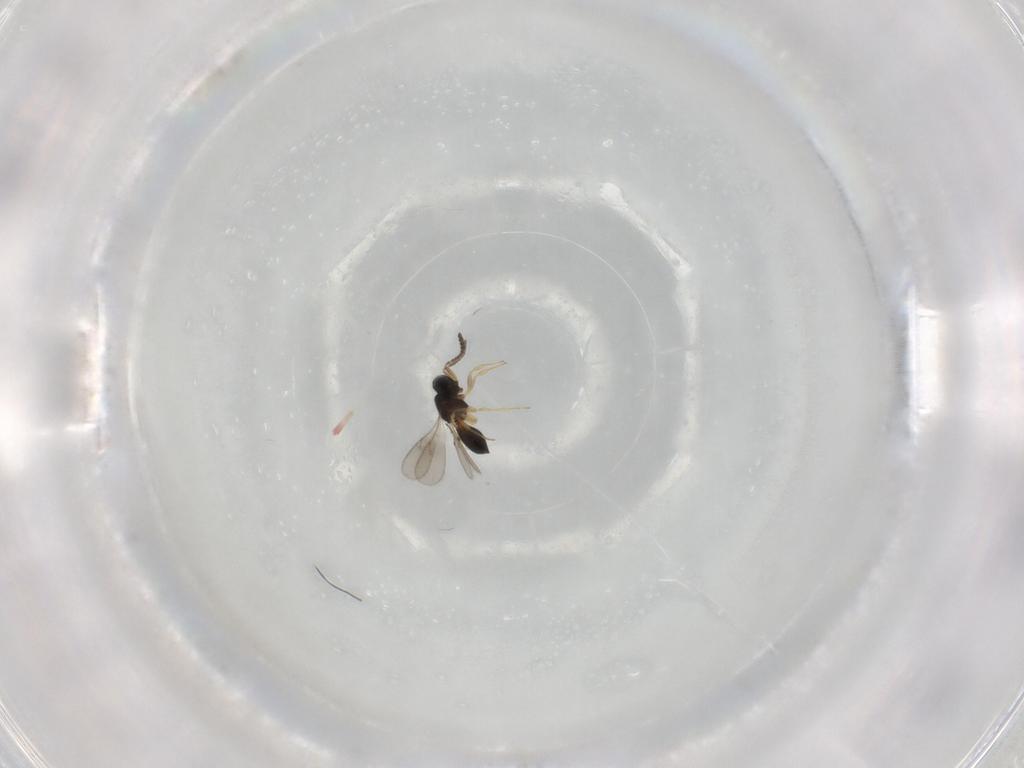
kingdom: Animalia
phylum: Arthropoda
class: Insecta
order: Hymenoptera
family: Scelionidae
